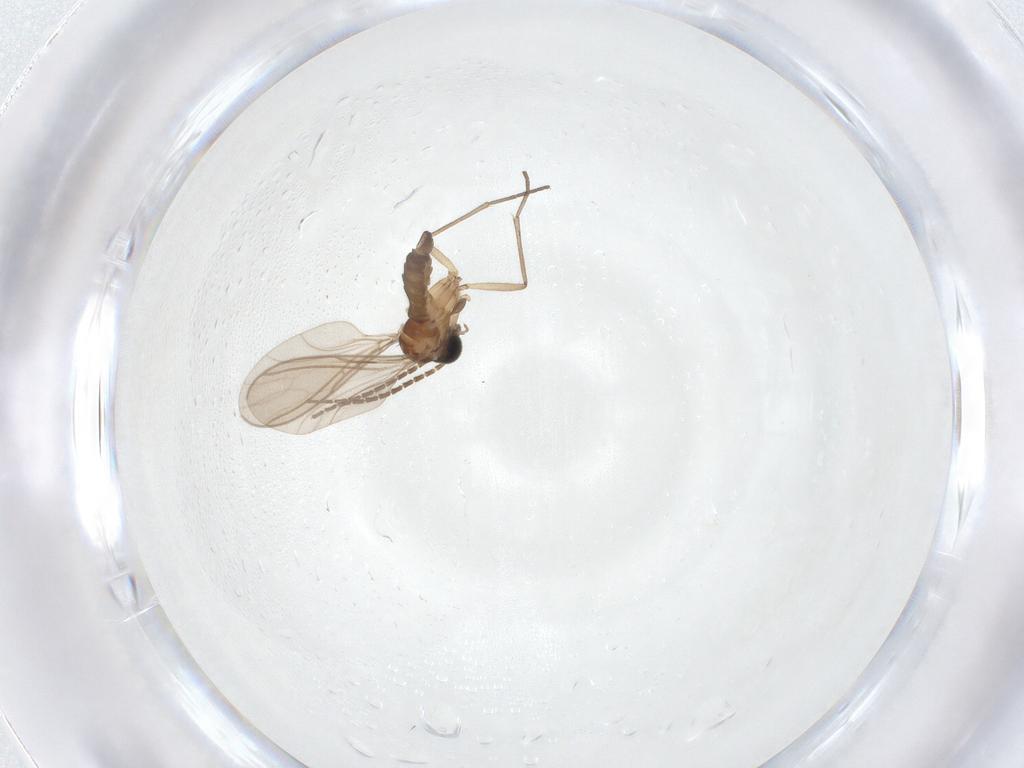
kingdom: Animalia
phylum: Arthropoda
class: Insecta
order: Diptera
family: Sciaridae
